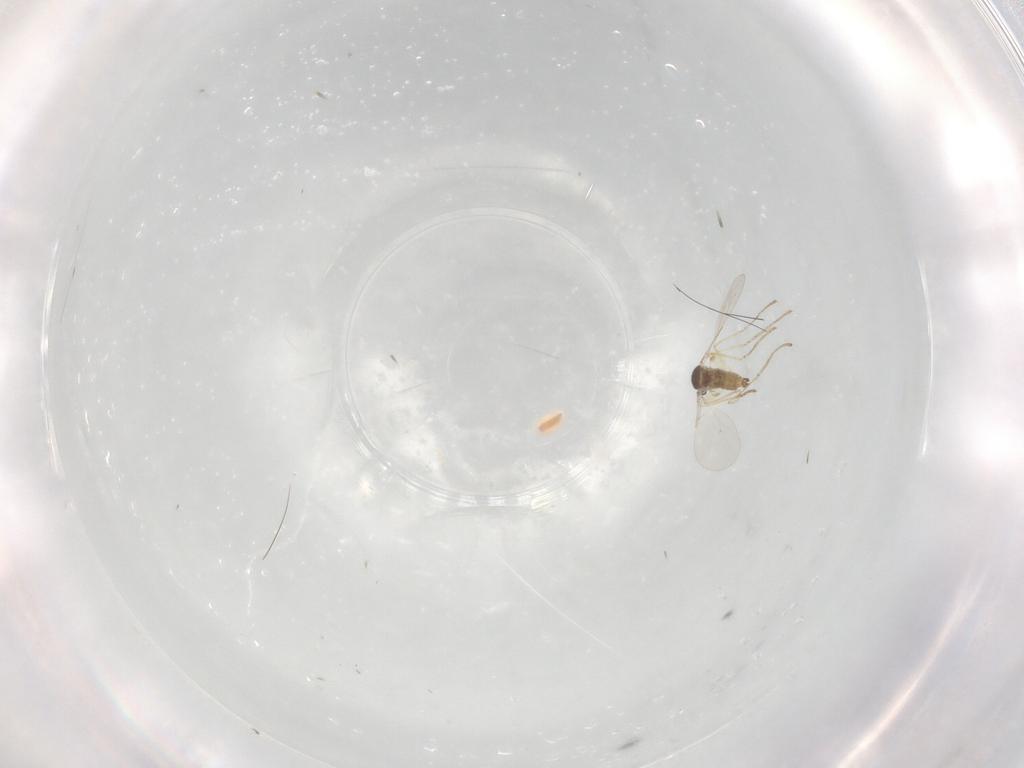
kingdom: Animalia
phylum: Arthropoda
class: Insecta
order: Diptera
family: Cecidomyiidae
